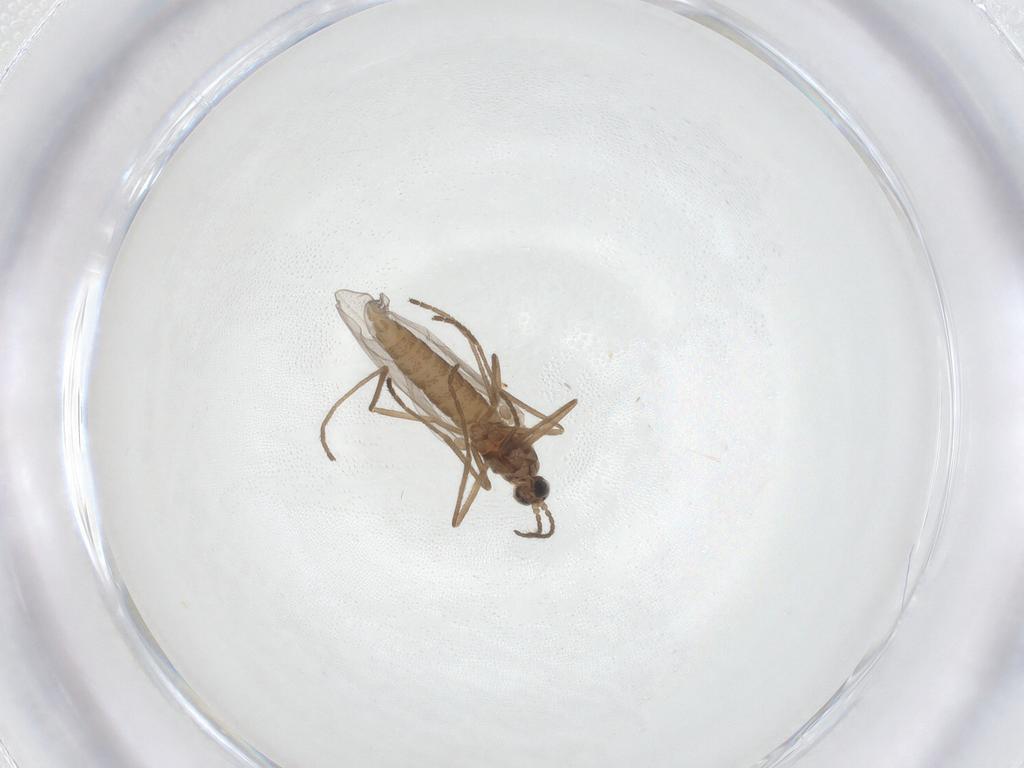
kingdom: Animalia
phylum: Arthropoda
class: Insecta
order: Diptera
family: Cecidomyiidae
